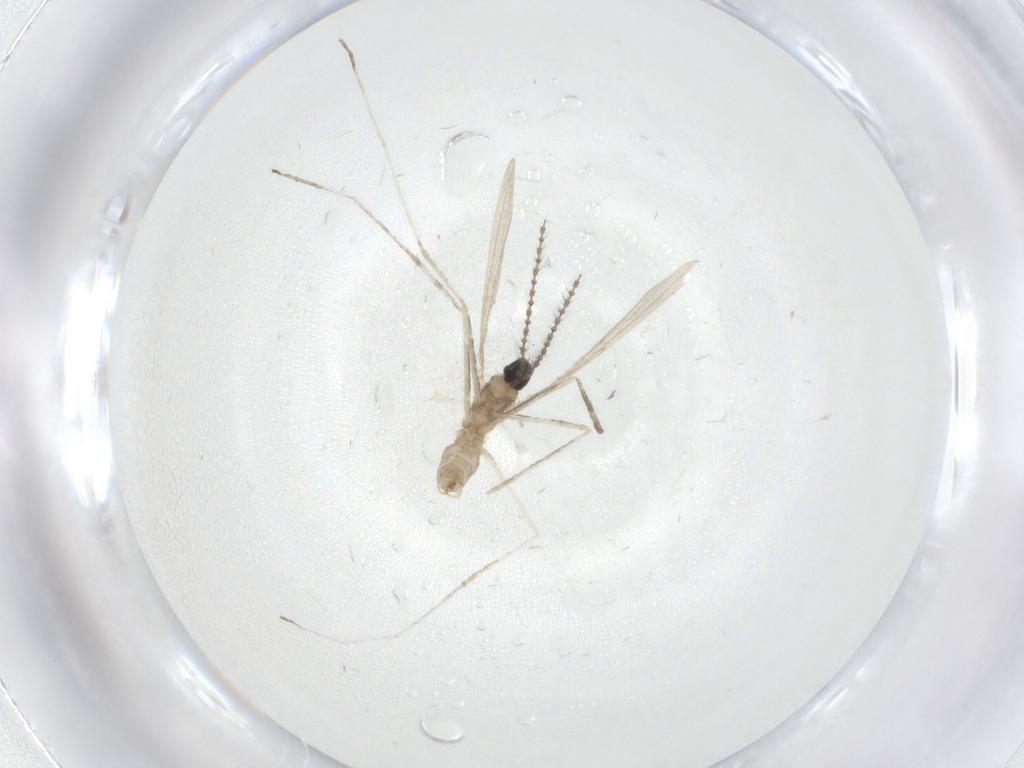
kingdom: Animalia
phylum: Arthropoda
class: Insecta
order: Diptera
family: Cecidomyiidae
